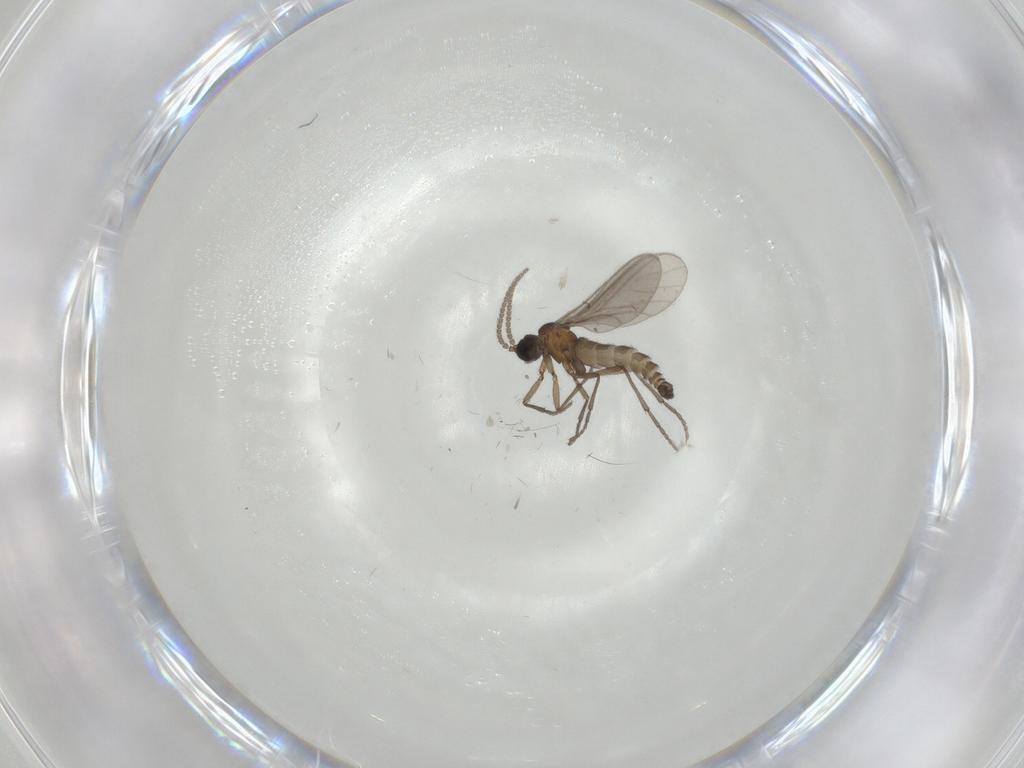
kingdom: Animalia
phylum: Arthropoda
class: Insecta
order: Diptera
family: Sciaridae
